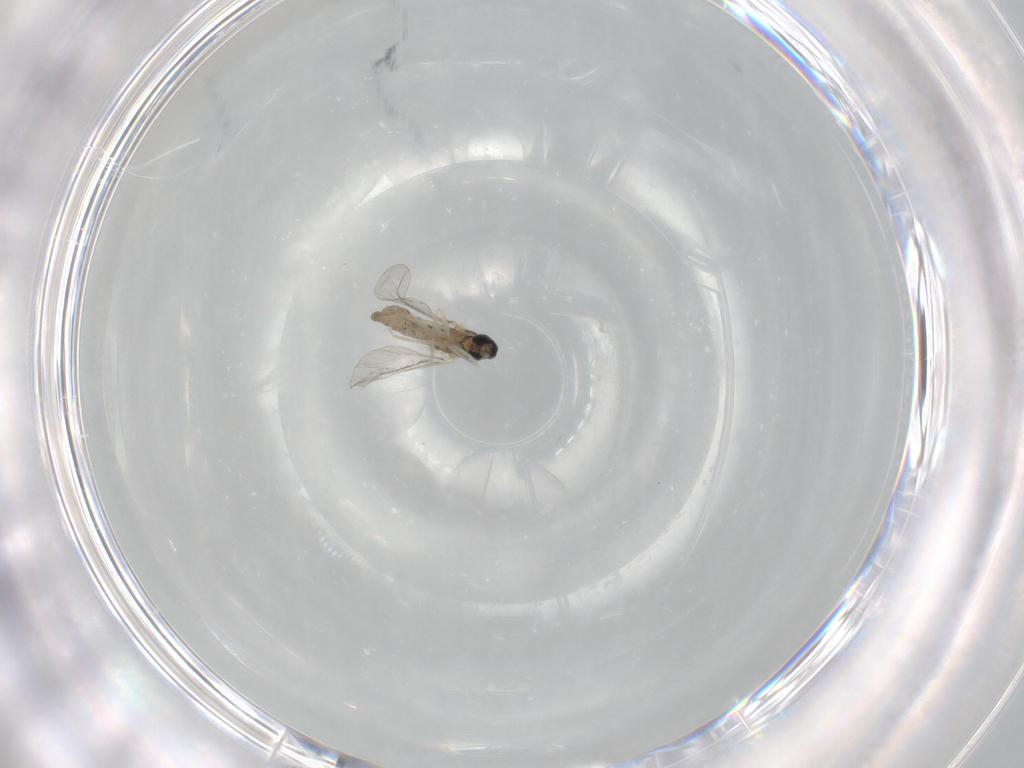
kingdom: Animalia
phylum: Arthropoda
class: Insecta
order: Diptera
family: Cecidomyiidae
